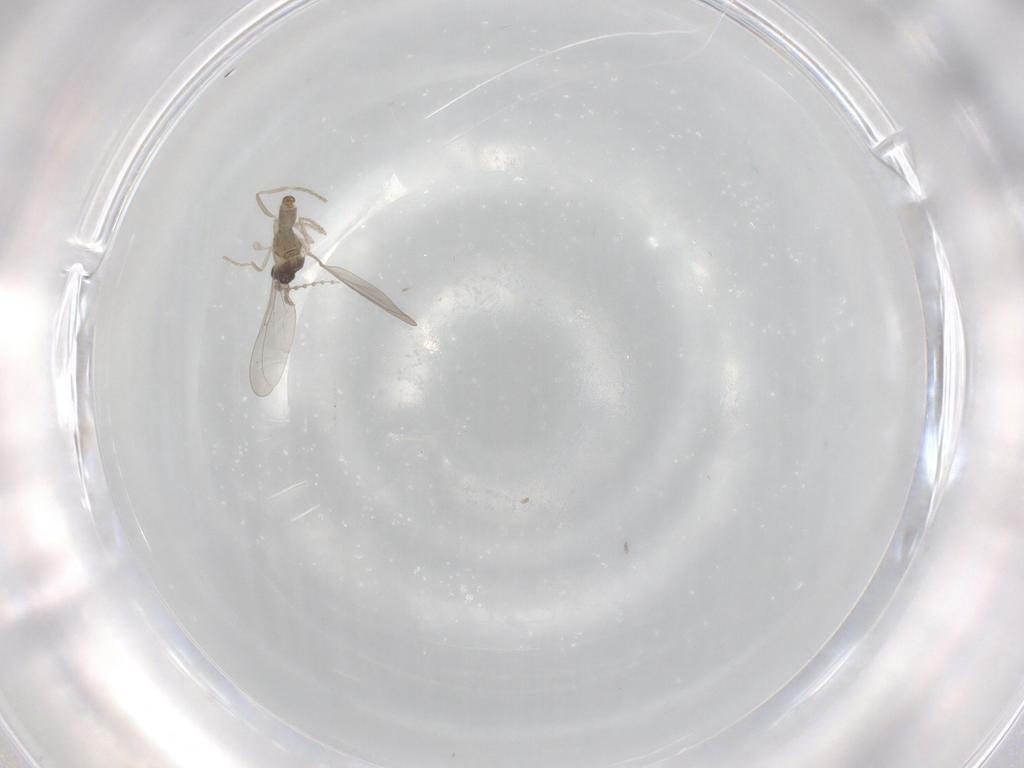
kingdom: Animalia
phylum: Arthropoda
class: Insecta
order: Diptera
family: Cecidomyiidae
